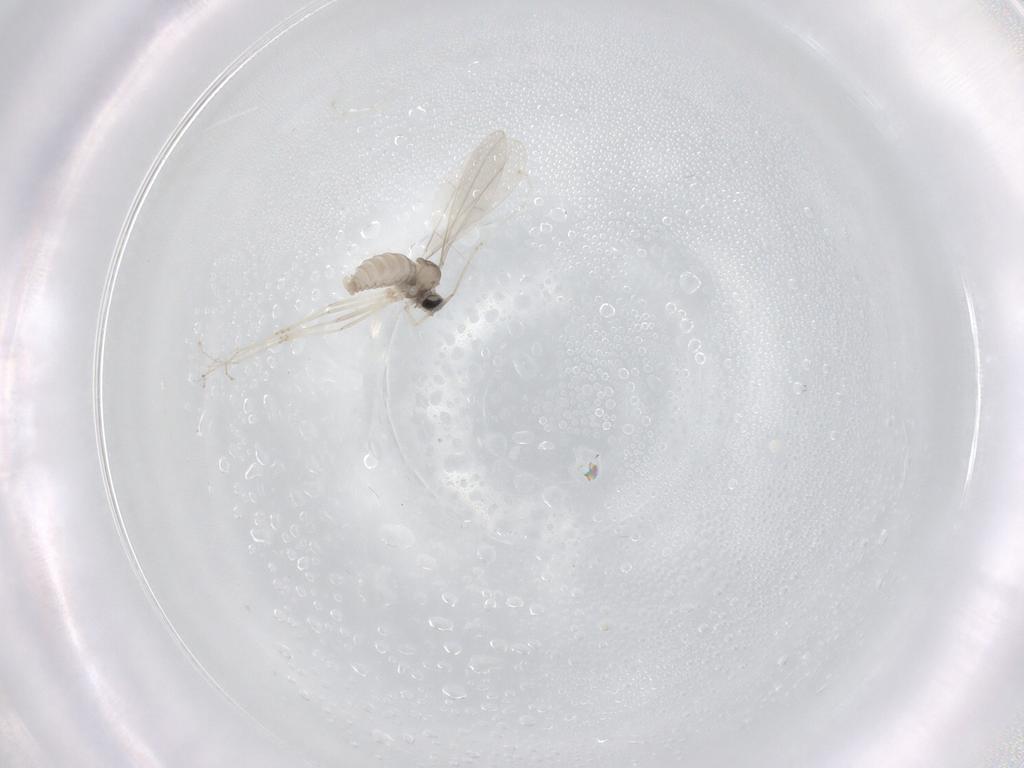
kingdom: Animalia
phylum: Arthropoda
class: Insecta
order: Diptera
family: Cecidomyiidae
